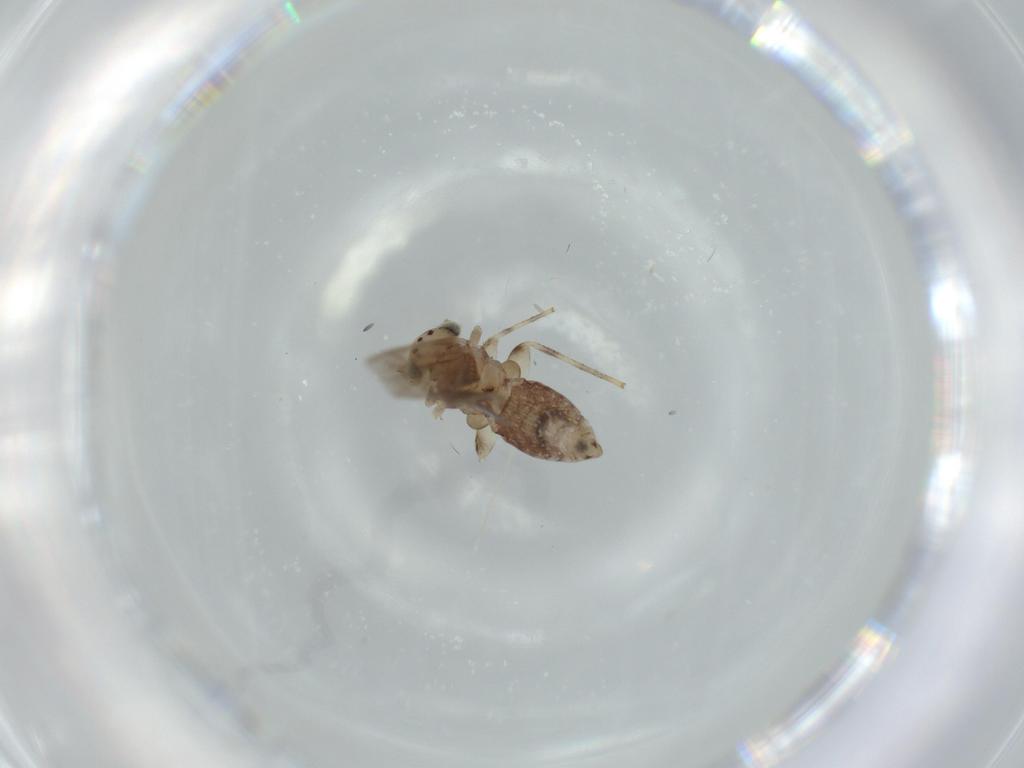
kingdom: Animalia
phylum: Arthropoda
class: Insecta
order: Psocodea
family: Lepidopsocidae
